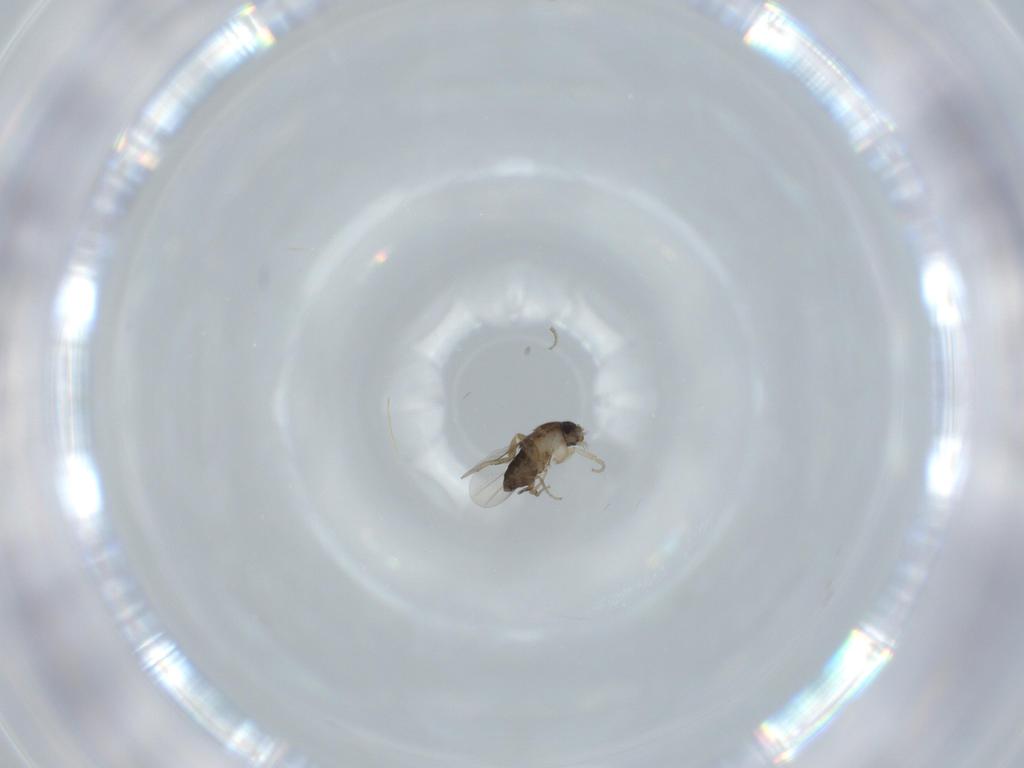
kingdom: Animalia
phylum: Arthropoda
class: Insecta
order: Diptera
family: Phoridae
